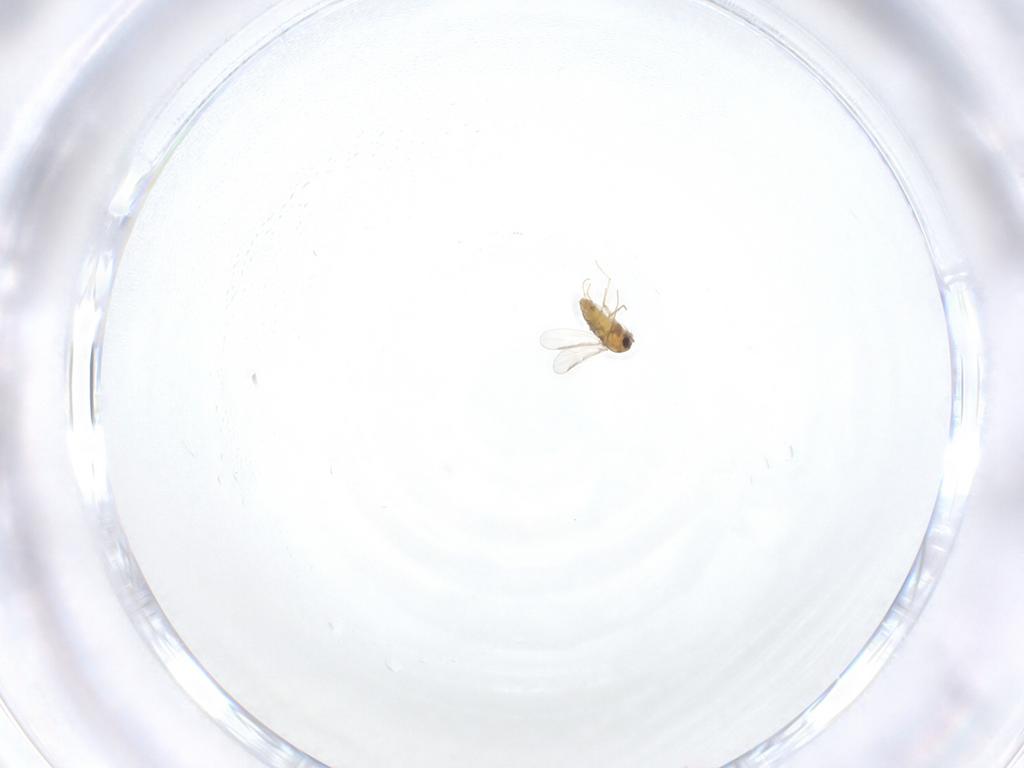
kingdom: Animalia
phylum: Arthropoda
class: Insecta
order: Diptera
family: Chironomidae
